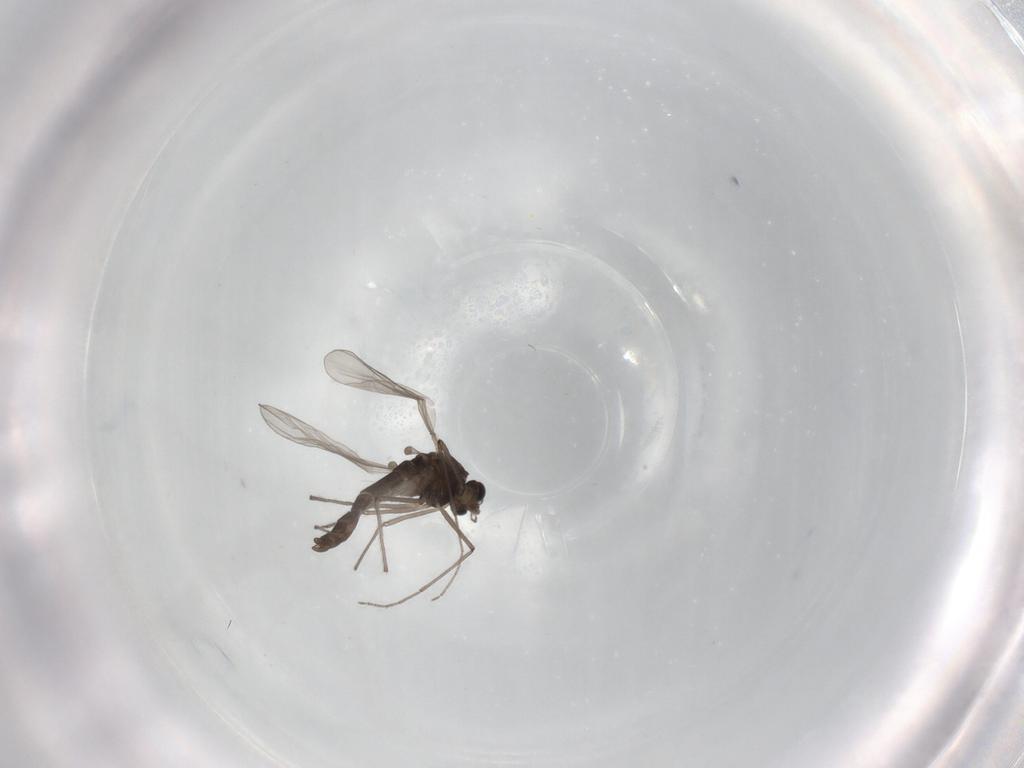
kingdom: Animalia
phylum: Arthropoda
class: Insecta
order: Diptera
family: Chironomidae
